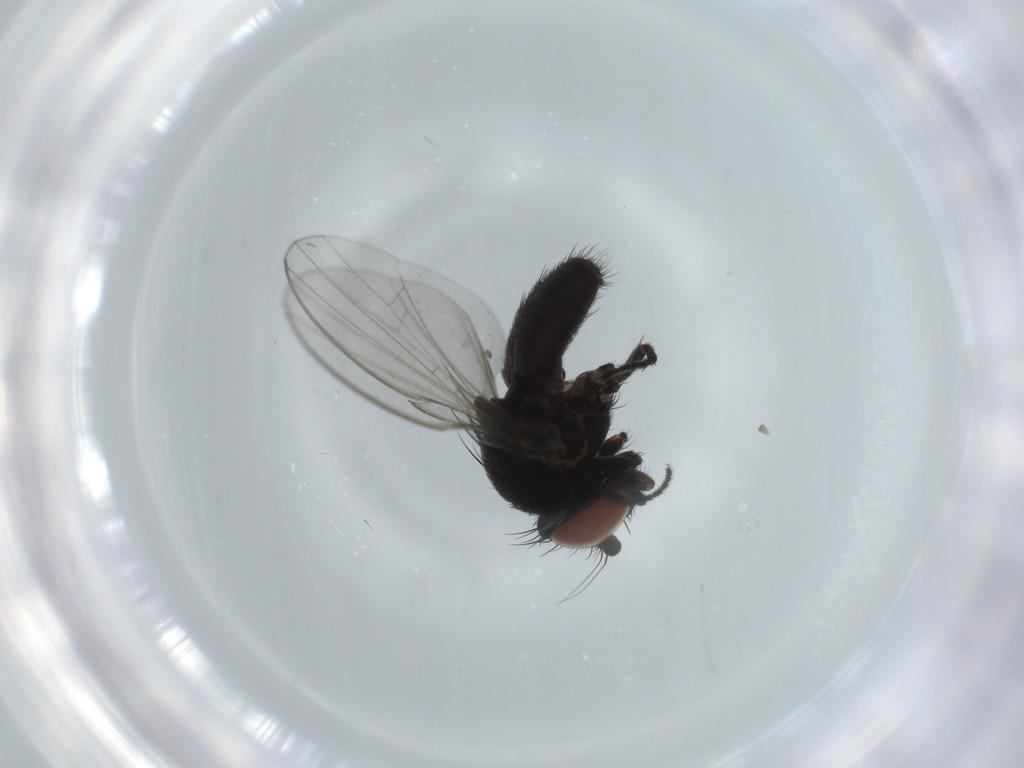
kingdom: Animalia
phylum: Arthropoda
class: Insecta
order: Diptera
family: Milichiidae
